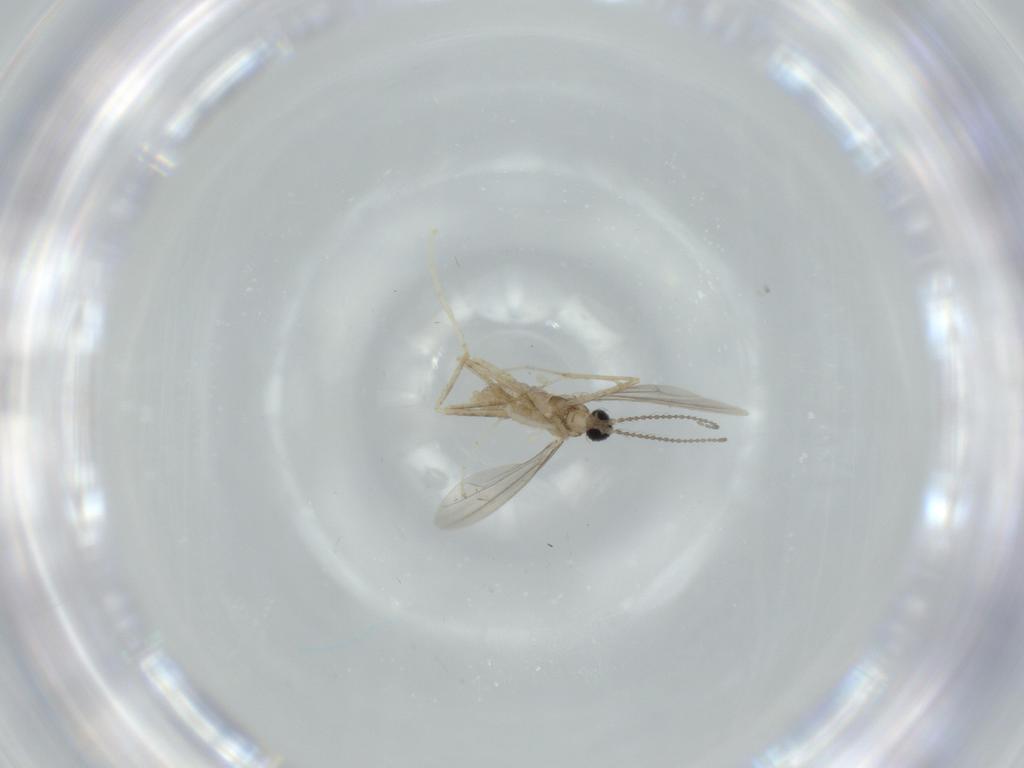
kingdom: Animalia
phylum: Arthropoda
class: Insecta
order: Diptera
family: Cecidomyiidae
